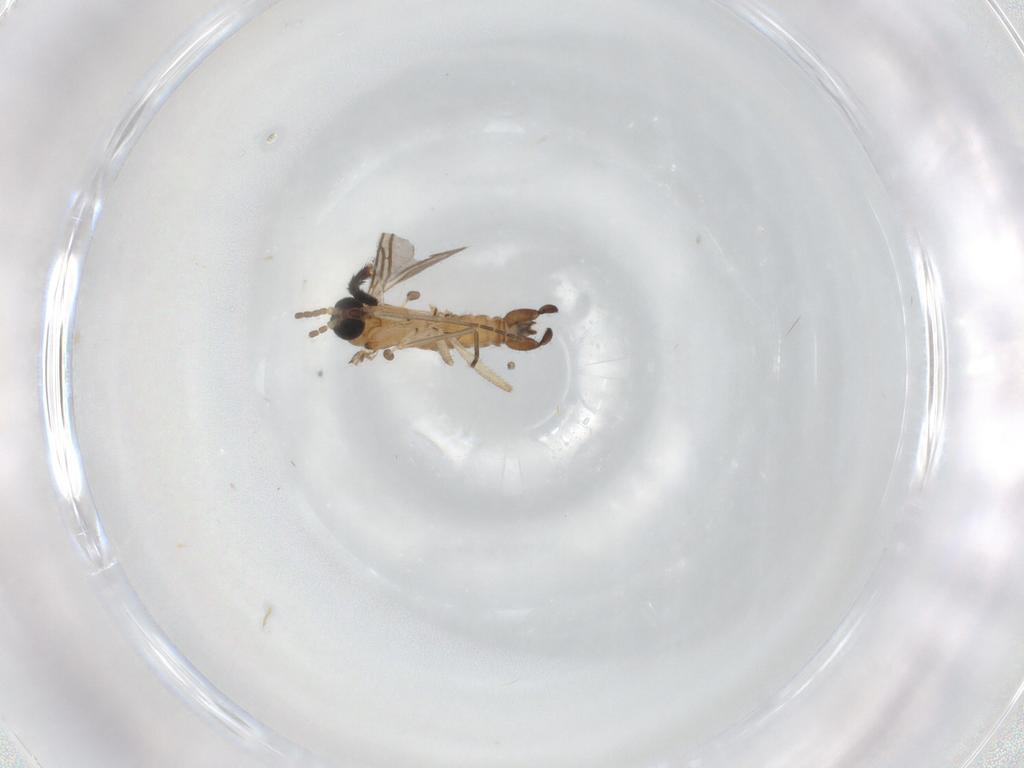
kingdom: Animalia
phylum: Arthropoda
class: Insecta
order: Diptera
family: Sciaridae
